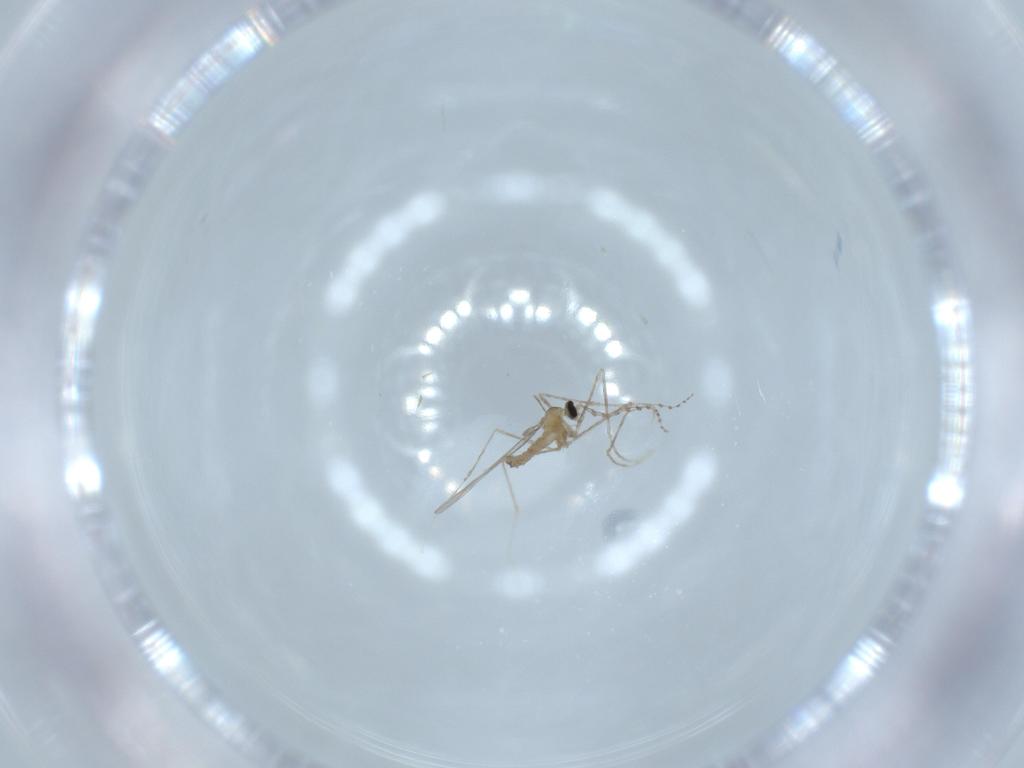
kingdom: Animalia
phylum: Arthropoda
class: Insecta
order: Diptera
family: Cecidomyiidae
